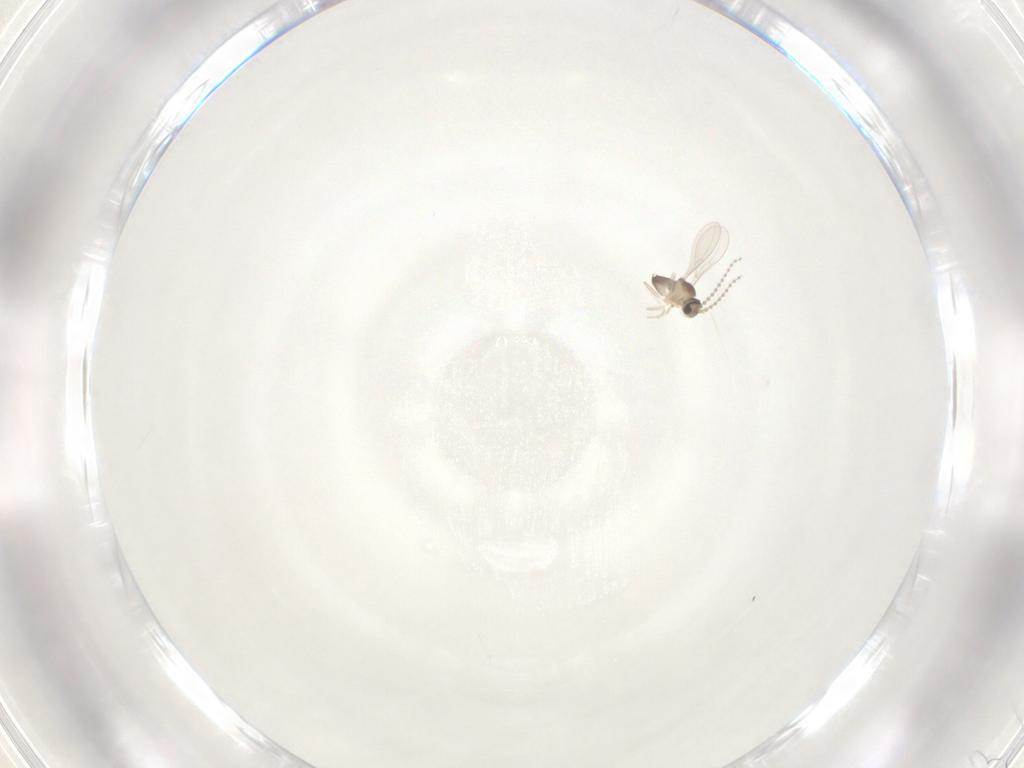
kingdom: Animalia
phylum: Arthropoda
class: Insecta
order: Diptera
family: Cecidomyiidae
